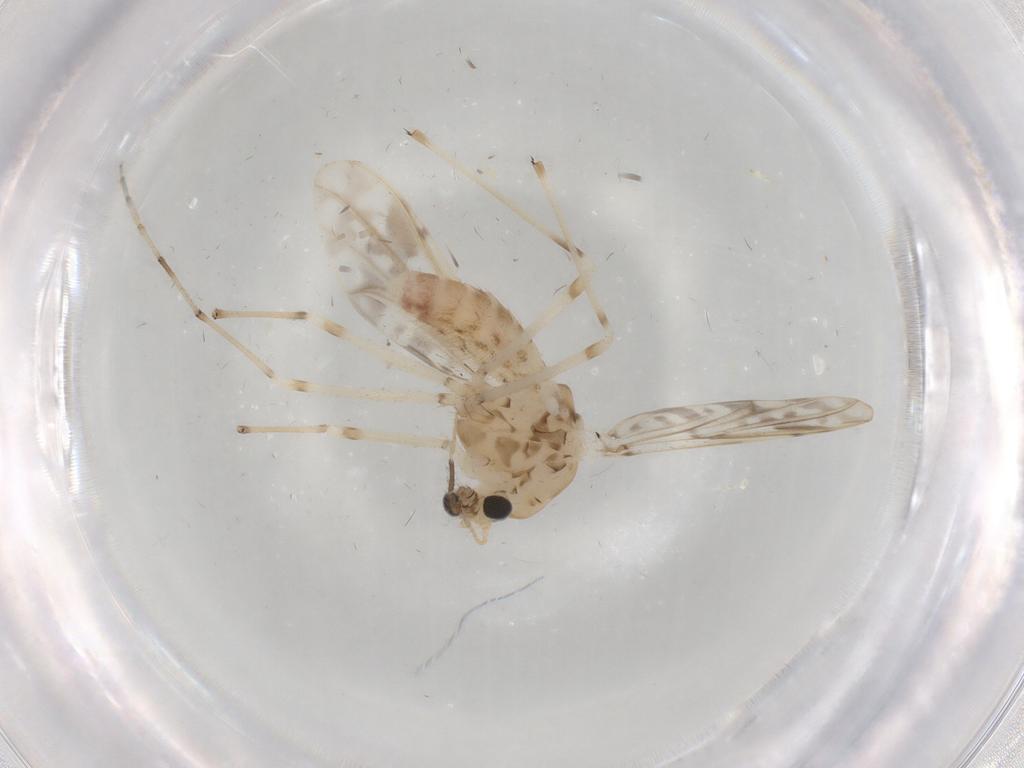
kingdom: Animalia
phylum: Arthropoda
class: Insecta
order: Diptera
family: Chironomidae
